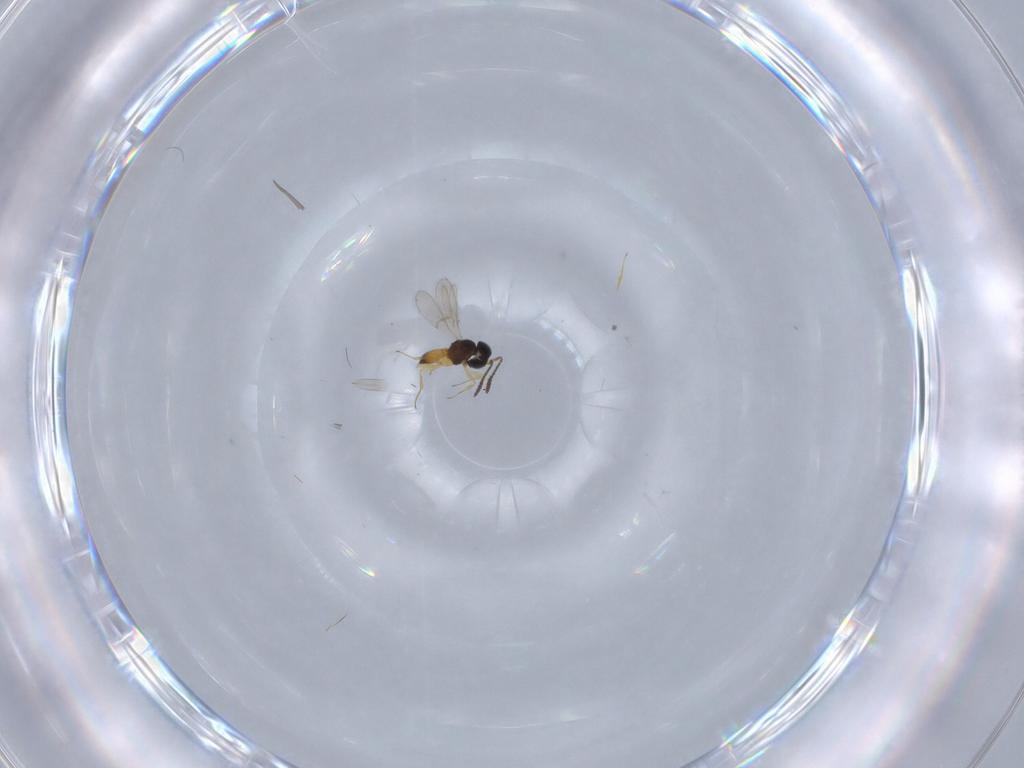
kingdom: Animalia
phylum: Arthropoda
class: Insecta
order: Hymenoptera
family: Scelionidae
